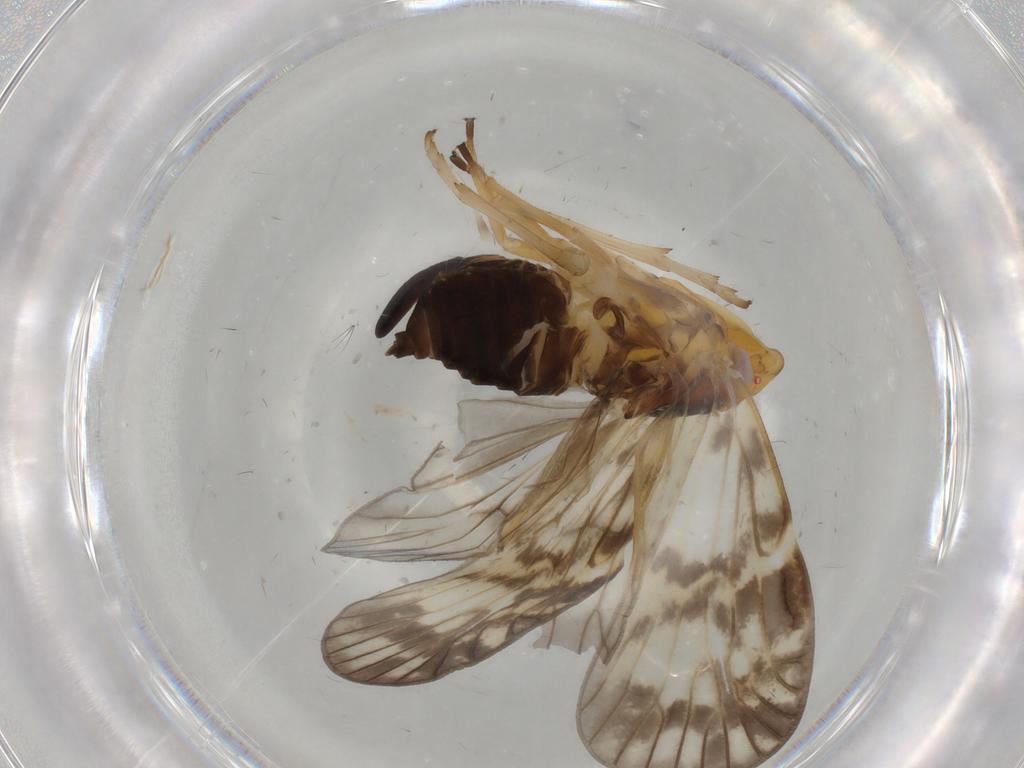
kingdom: Animalia
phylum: Arthropoda
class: Insecta
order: Hemiptera
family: Cixiidae
